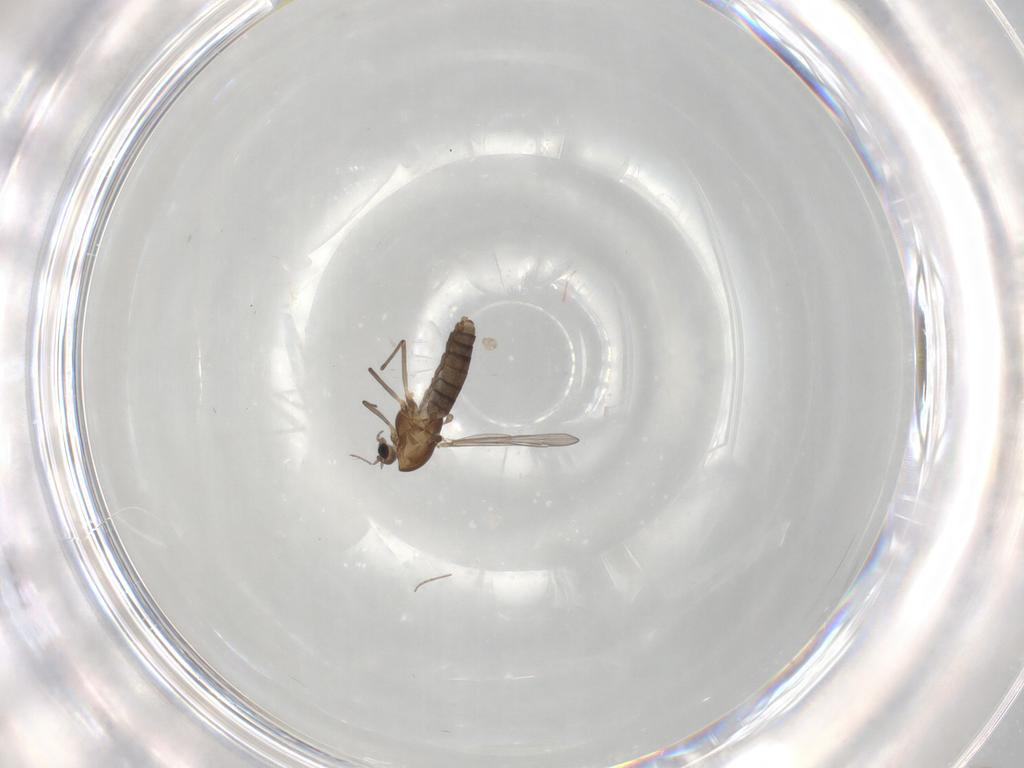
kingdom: Animalia
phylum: Arthropoda
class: Insecta
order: Diptera
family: Chironomidae
